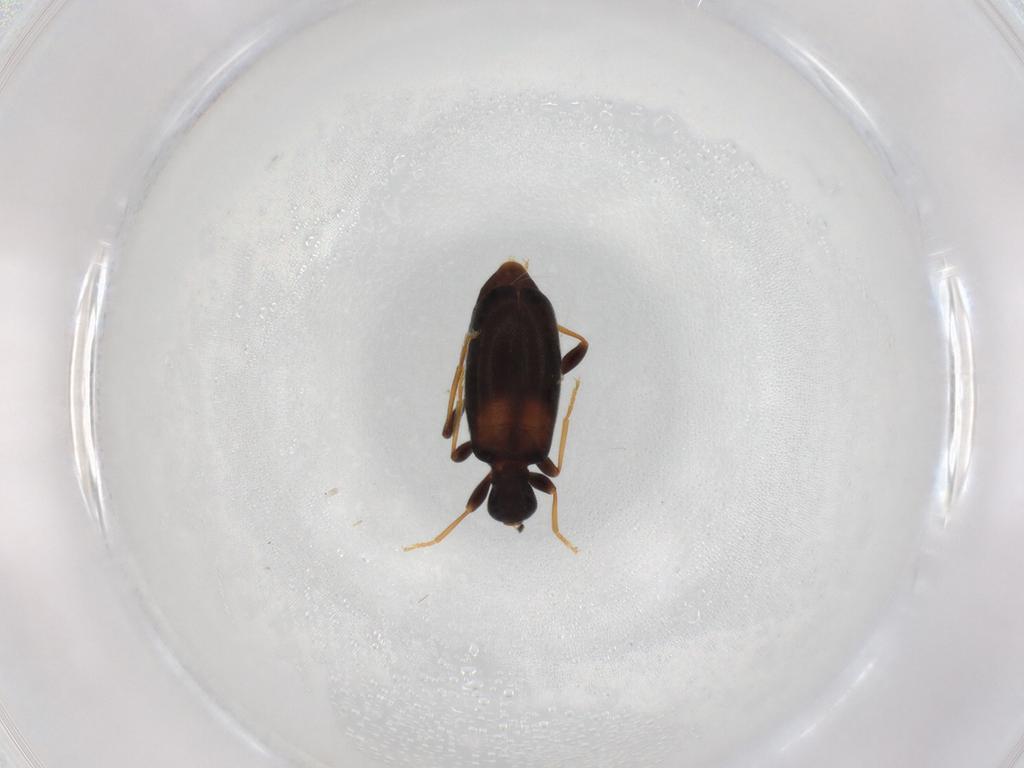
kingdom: Animalia
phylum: Arthropoda
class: Insecta
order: Coleoptera
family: Anthicidae
